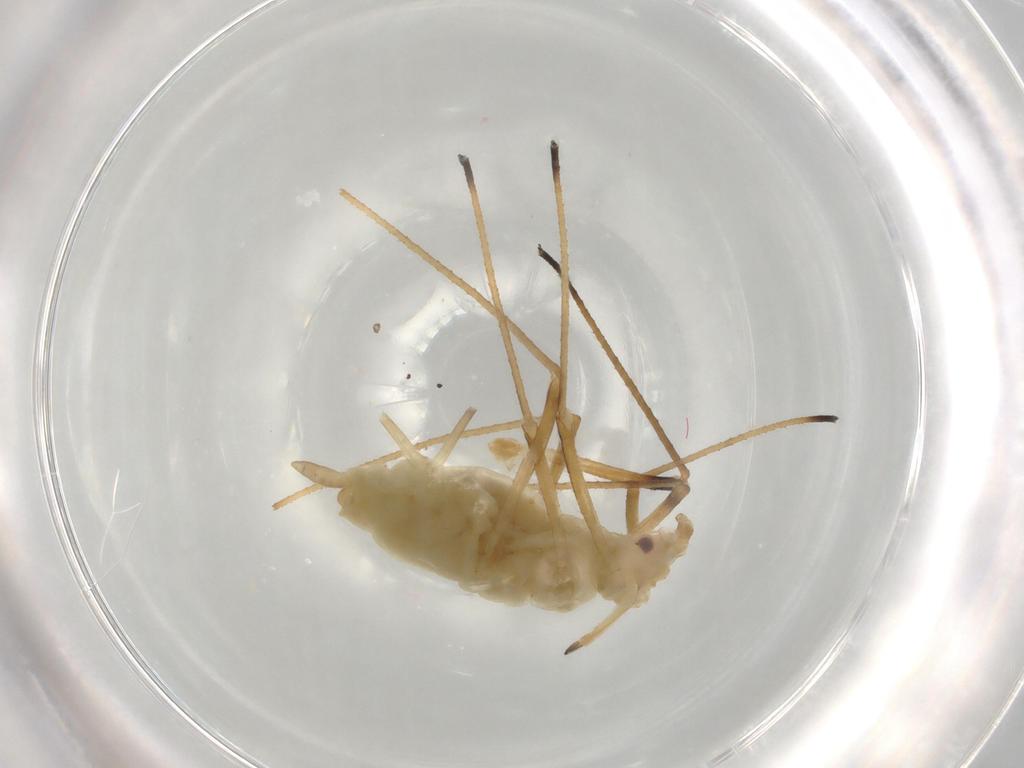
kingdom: Animalia
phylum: Arthropoda
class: Insecta
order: Hemiptera
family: Aphididae
